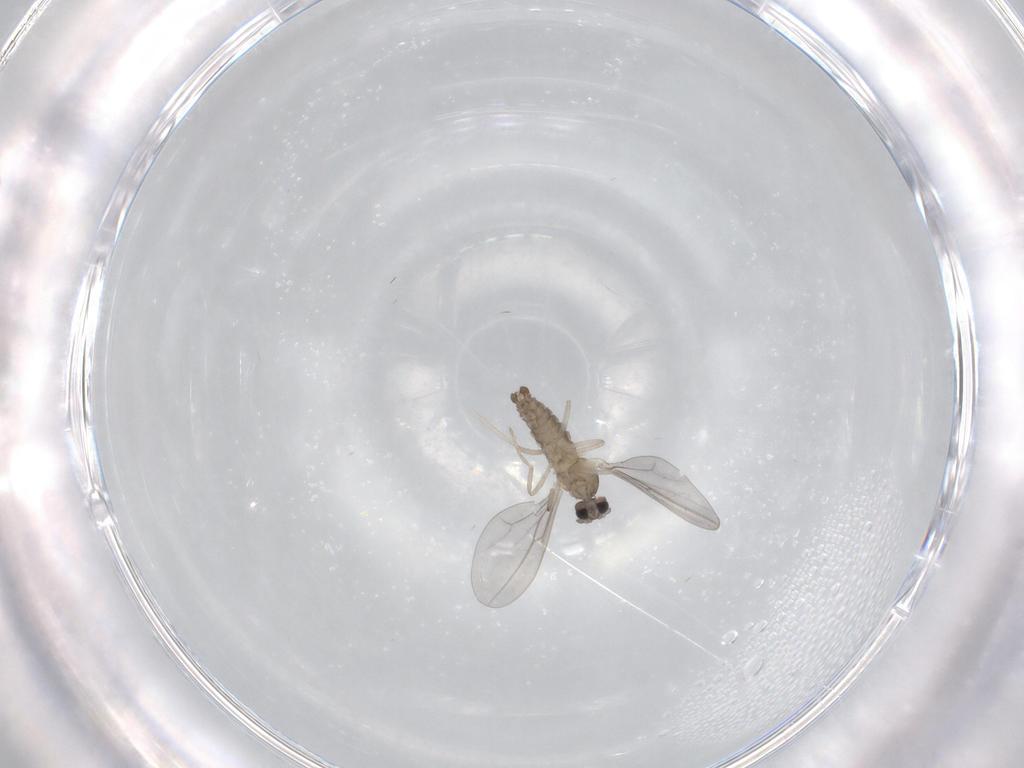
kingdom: Animalia
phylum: Arthropoda
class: Insecta
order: Diptera
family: Cecidomyiidae
